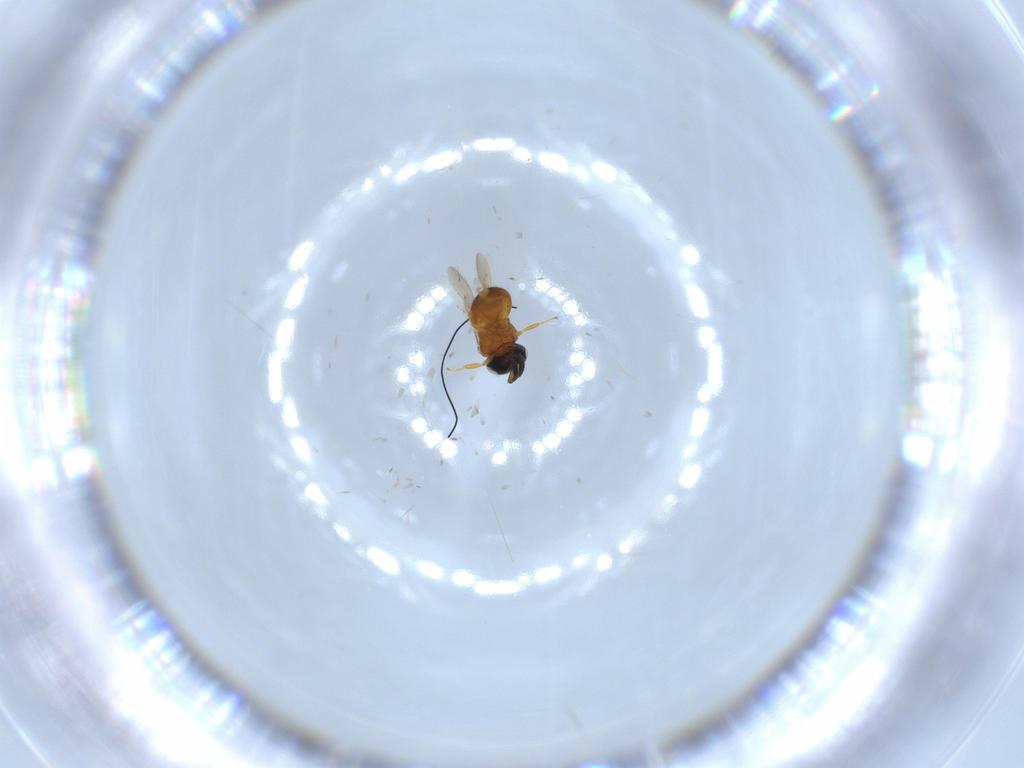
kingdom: Animalia
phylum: Arthropoda
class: Insecta
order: Hymenoptera
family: Scelionidae
